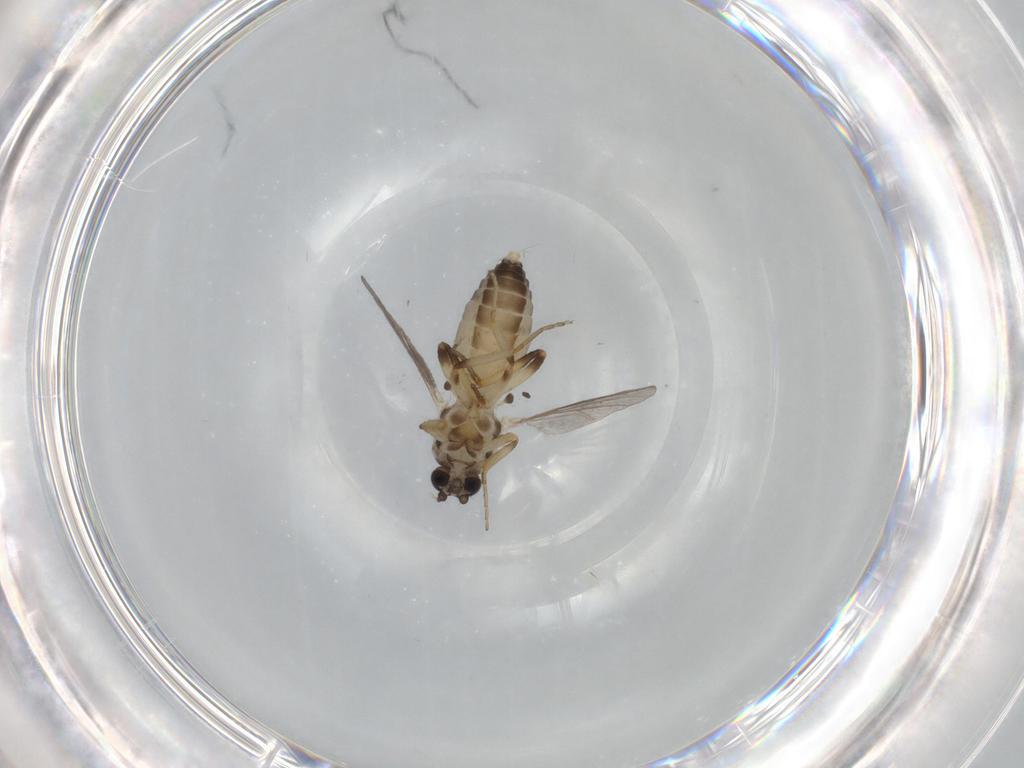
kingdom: Animalia
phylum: Arthropoda
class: Insecta
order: Diptera
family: Ceratopogonidae
